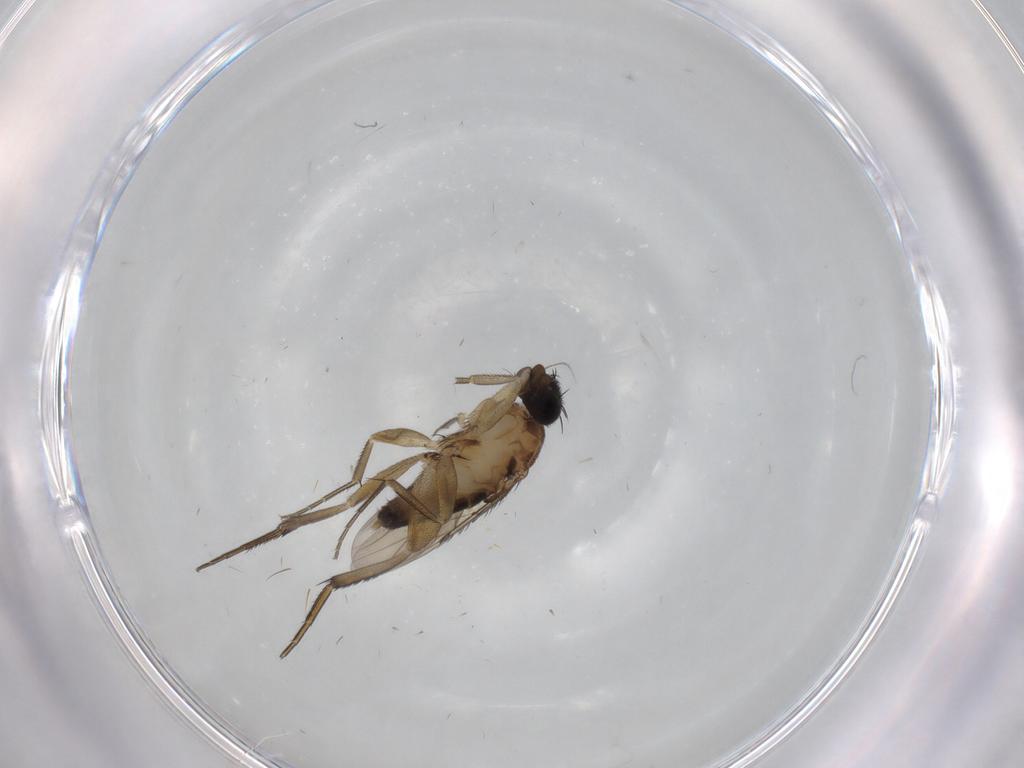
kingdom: Animalia
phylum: Arthropoda
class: Insecta
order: Diptera
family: Phoridae
